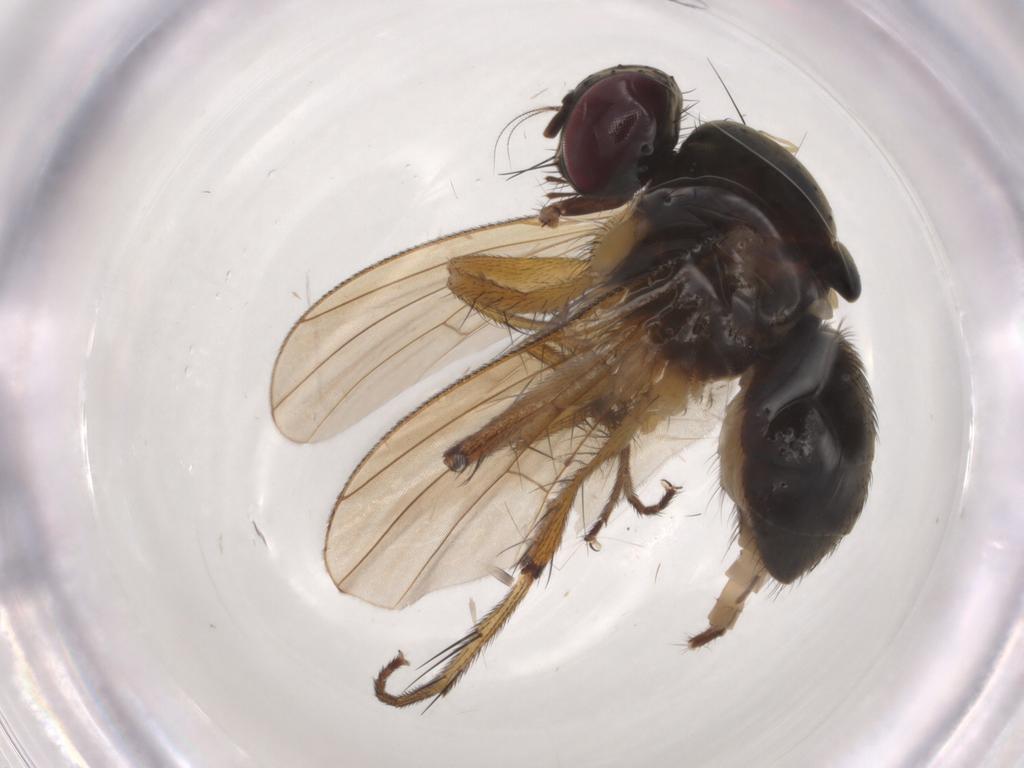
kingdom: Animalia
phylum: Arthropoda
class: Insecta
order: Diptera
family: Muscidae
